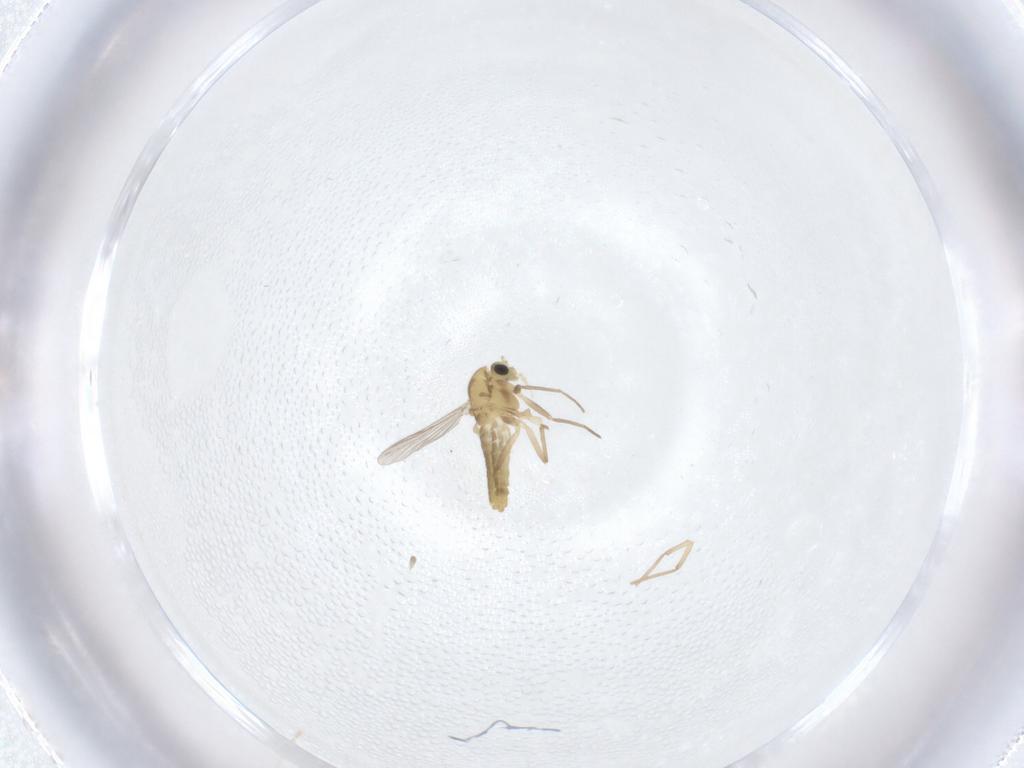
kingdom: Animalia
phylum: Arthropoda
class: Insecta
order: Diptera
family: Chironomidae
